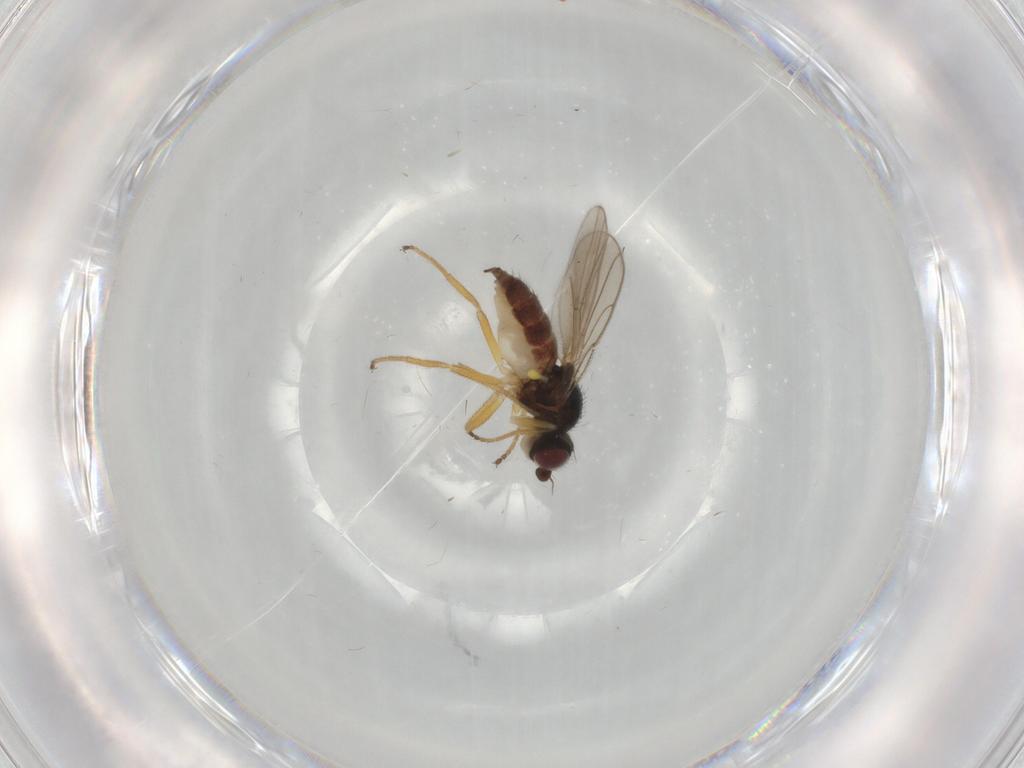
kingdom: Animalia
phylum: Arthropoda
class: Insecta
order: Diptera
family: Chloropidae
